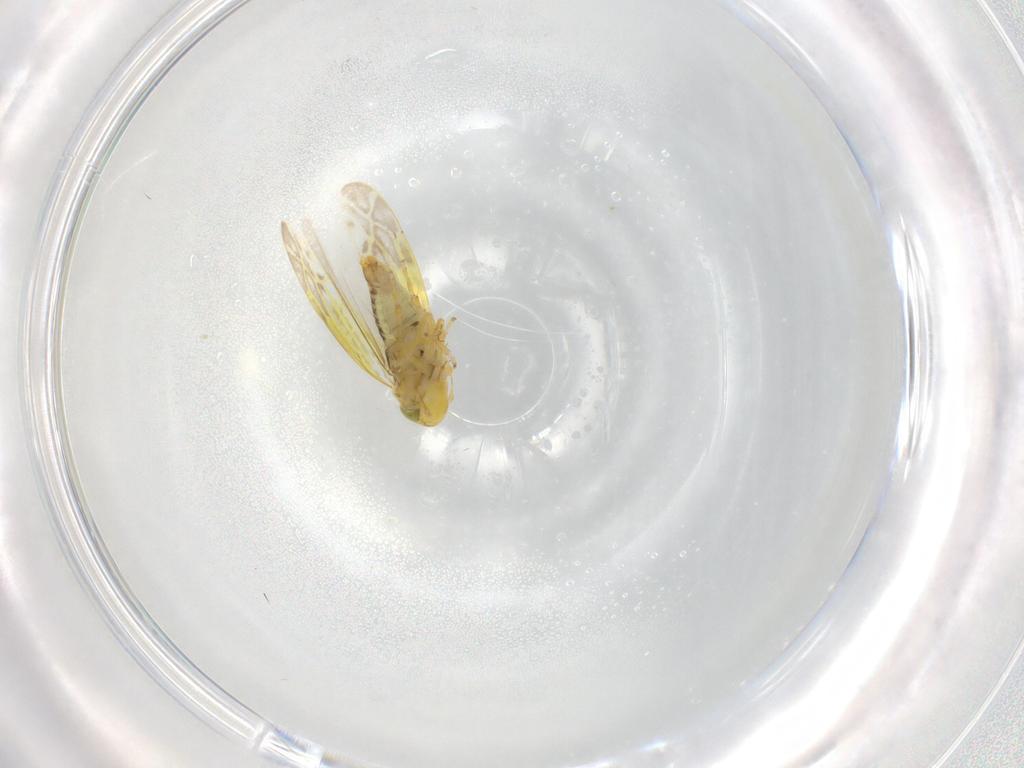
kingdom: Animalia
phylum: Arthropoda
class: Insecta
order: Hemiptera
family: Cicadellidae
